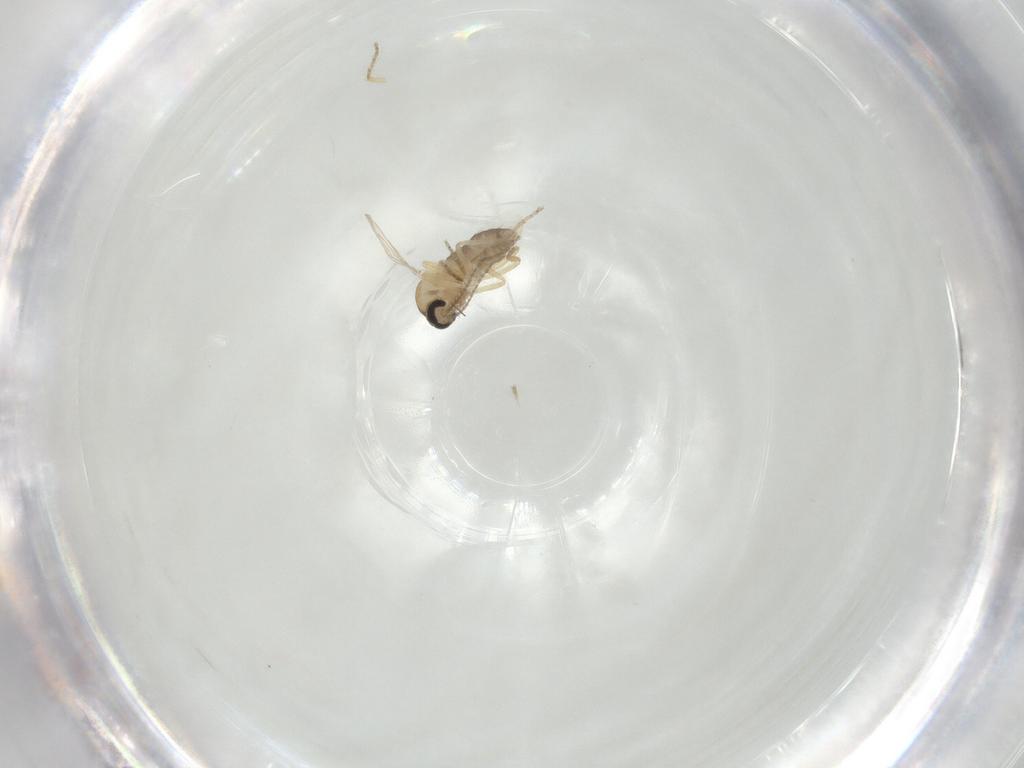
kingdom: Animalia
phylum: Arthropoda
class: Insecta
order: Diptera
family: Ceratopogonidae
